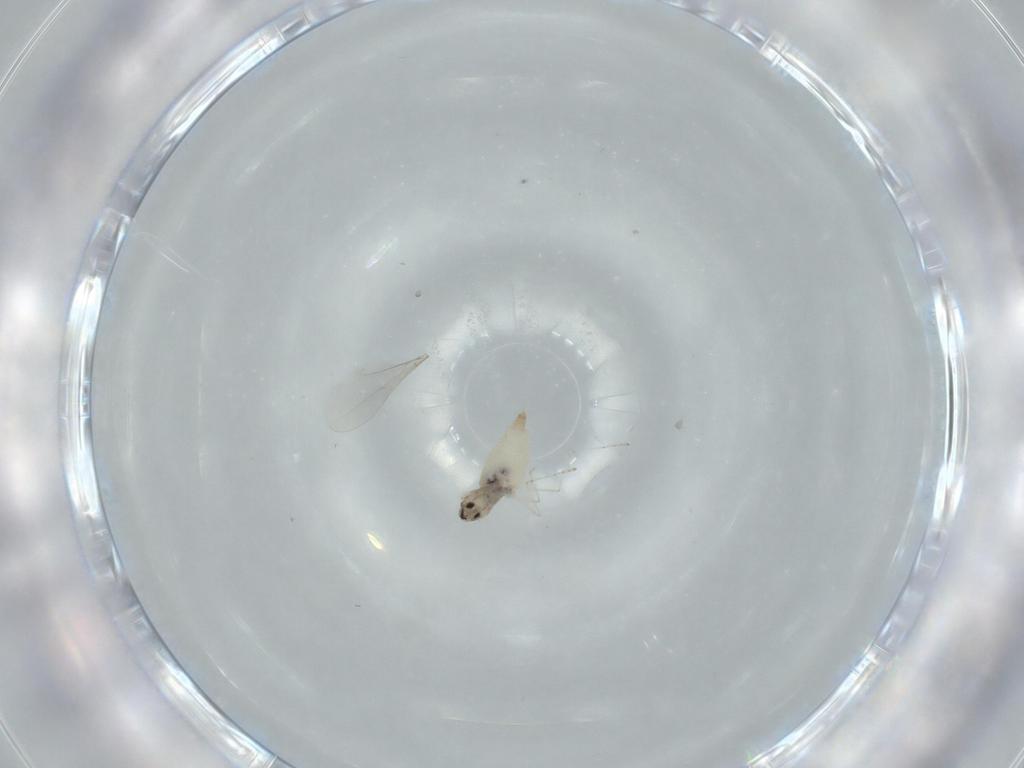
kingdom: Animalia
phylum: Arthropoda
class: Insecta
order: Diptera
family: Cecidomyiidae
